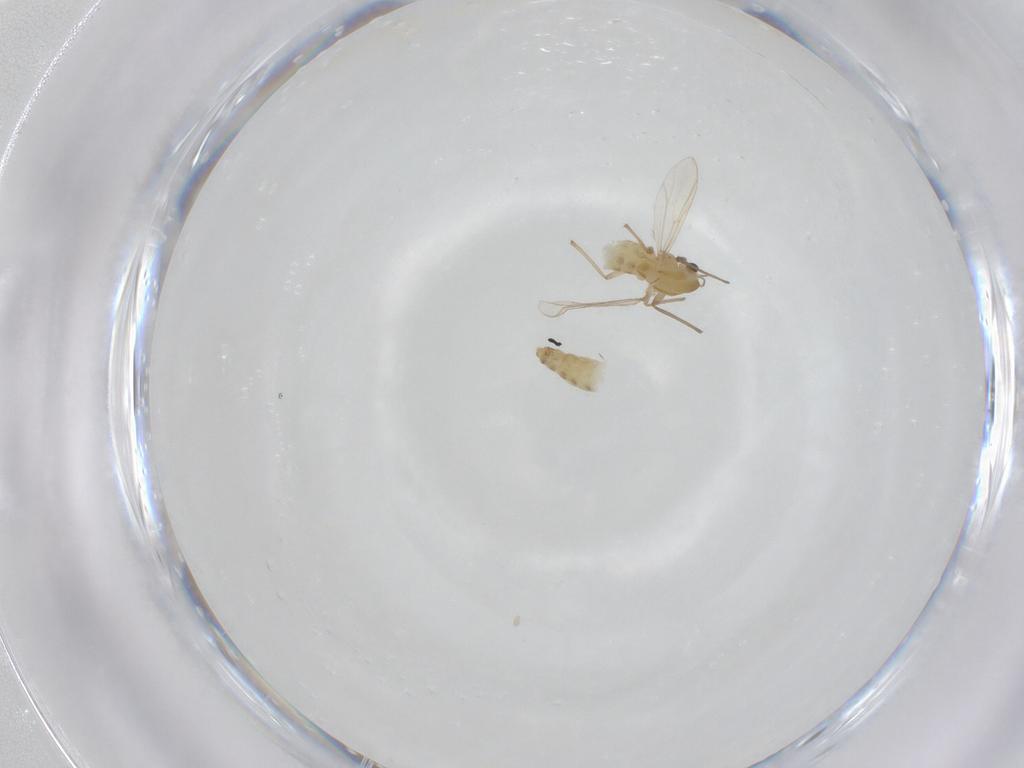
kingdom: Animalia
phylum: Arthropoda
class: Insecta
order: Diptera
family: Chironomidae
